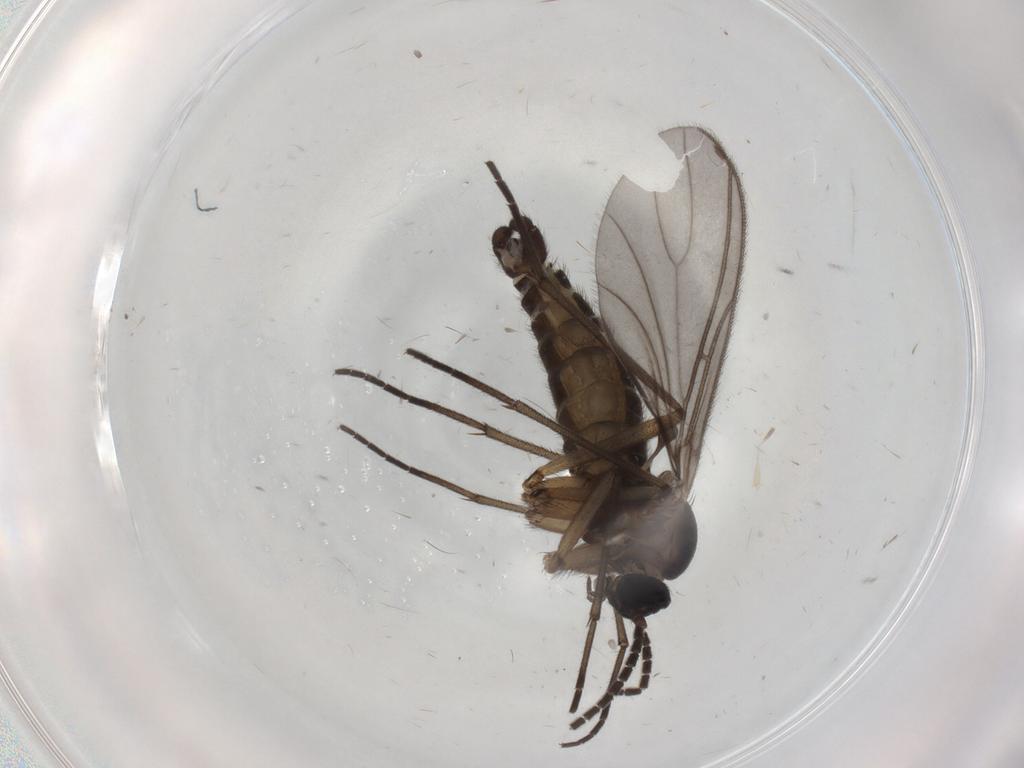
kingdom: Animalia
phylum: Arthropoda
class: Insecta
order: Diptera
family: Sciaridae
